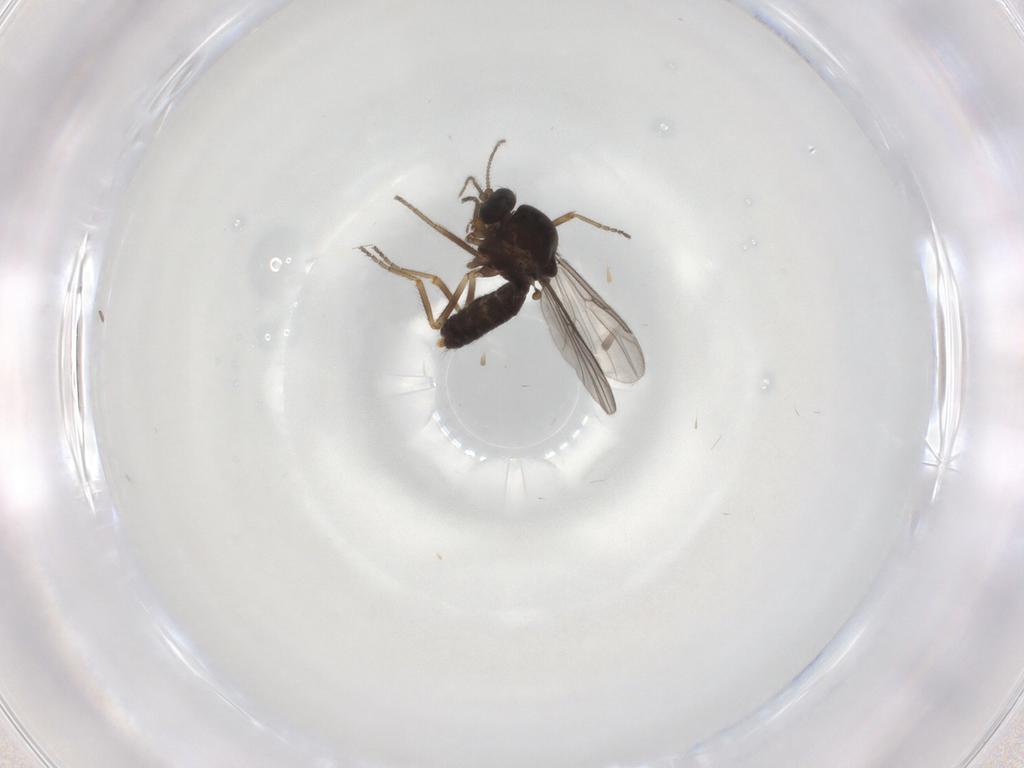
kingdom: Animalia
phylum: Arthropoda
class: Insecta
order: Diptera
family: Ceratopogonidae
